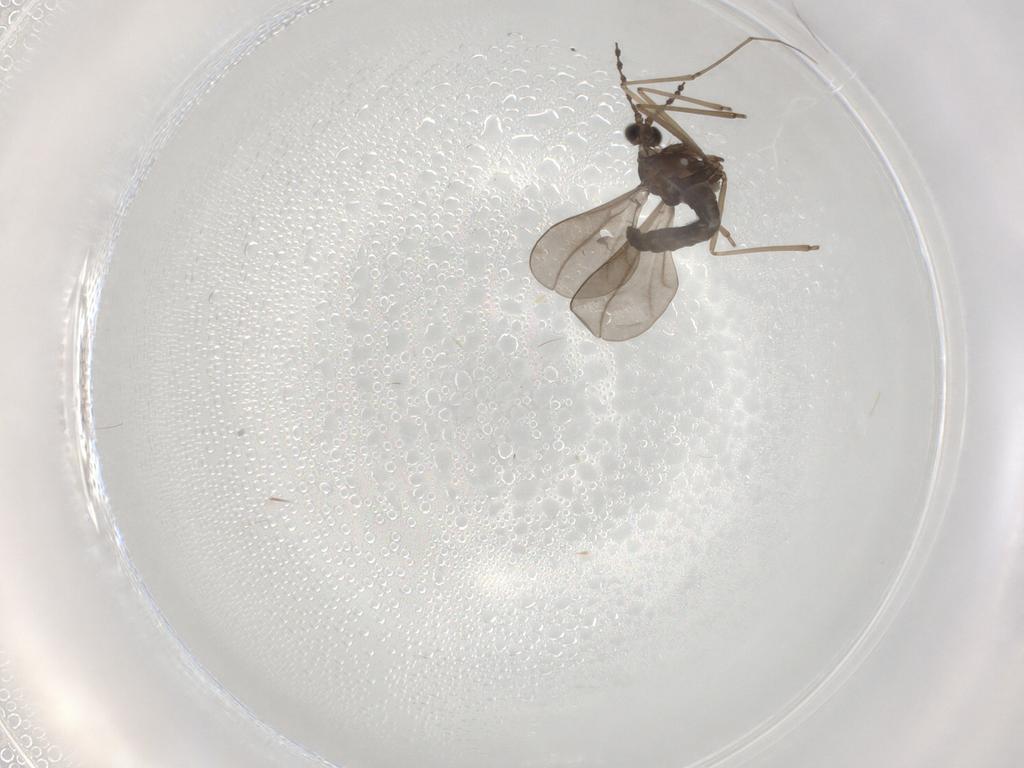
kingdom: Animalia
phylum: Arthropoda
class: Insecta
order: Diptera
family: Cecidomyiidae
